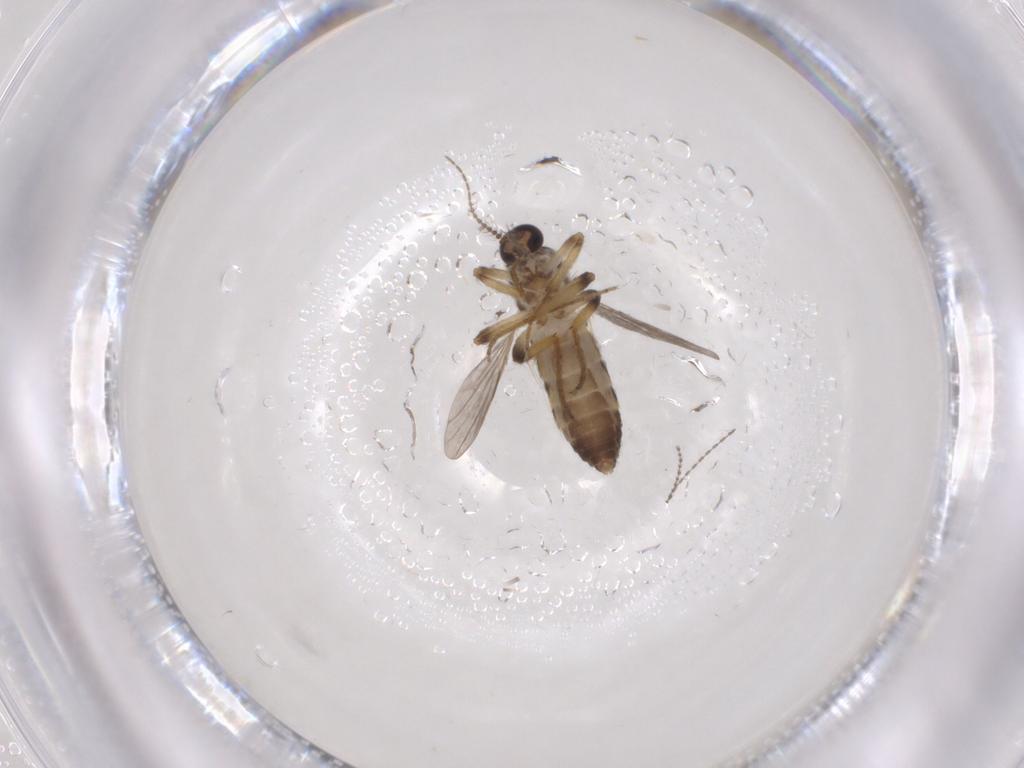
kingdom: Animalia
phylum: Arthropoda
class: Insecta
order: Diptera
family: Ceratopogonidae
